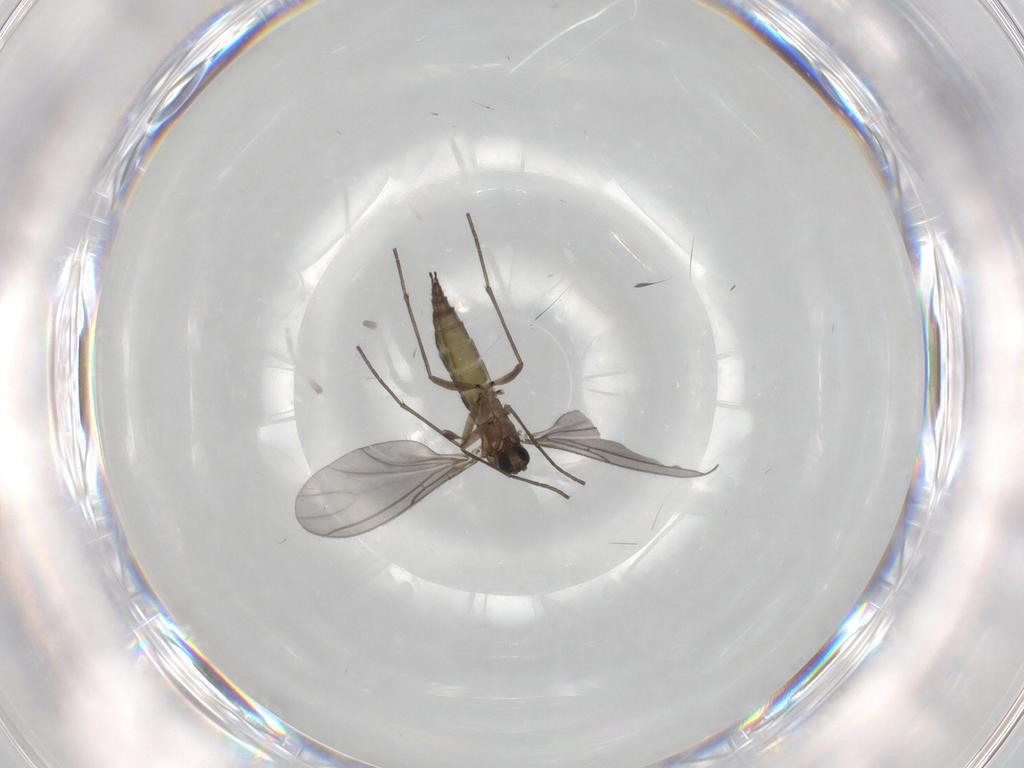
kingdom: Animalia
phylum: Arthropoda
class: Insecta
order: Diptera
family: Sciaridae
